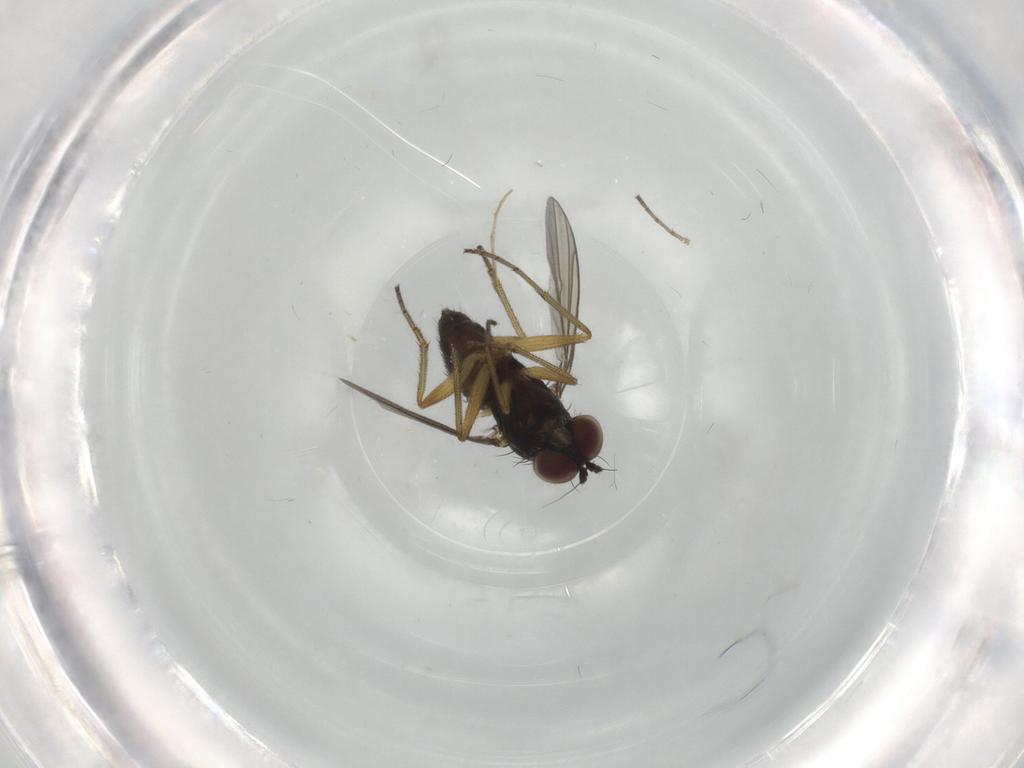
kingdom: Animalia
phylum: Arthropoda
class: Insecta
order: Diptera
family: Dolichopodidae
